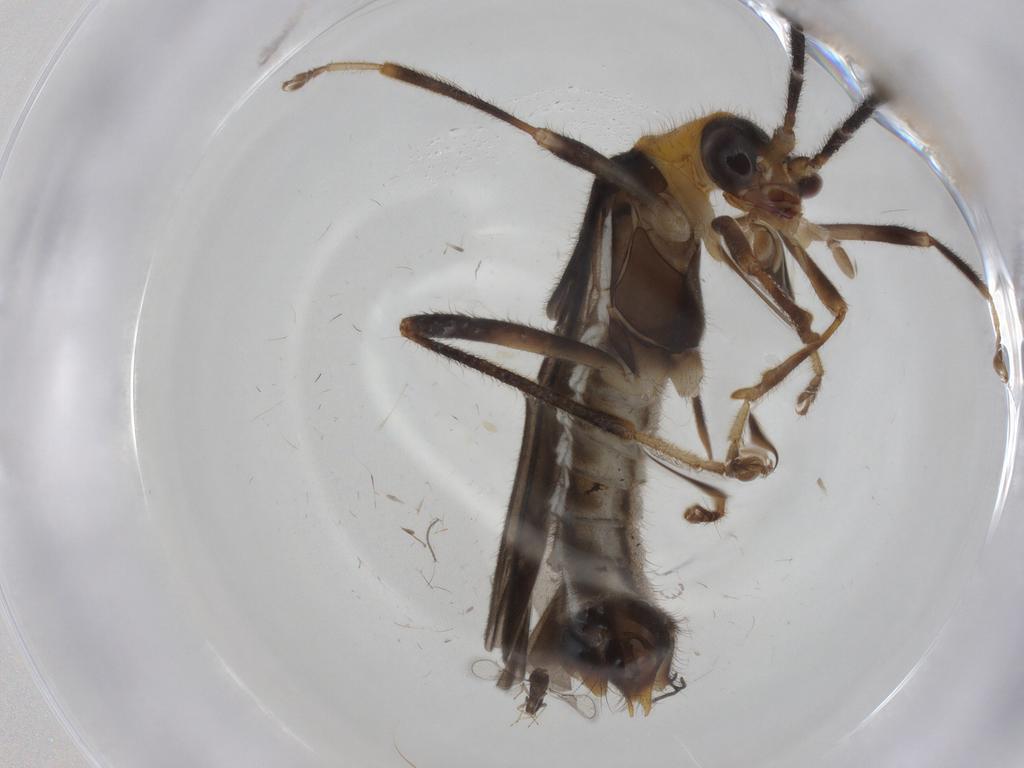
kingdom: Animalia
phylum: Arthropoda
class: Insecta
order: Coleoptera
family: Cantharidae
